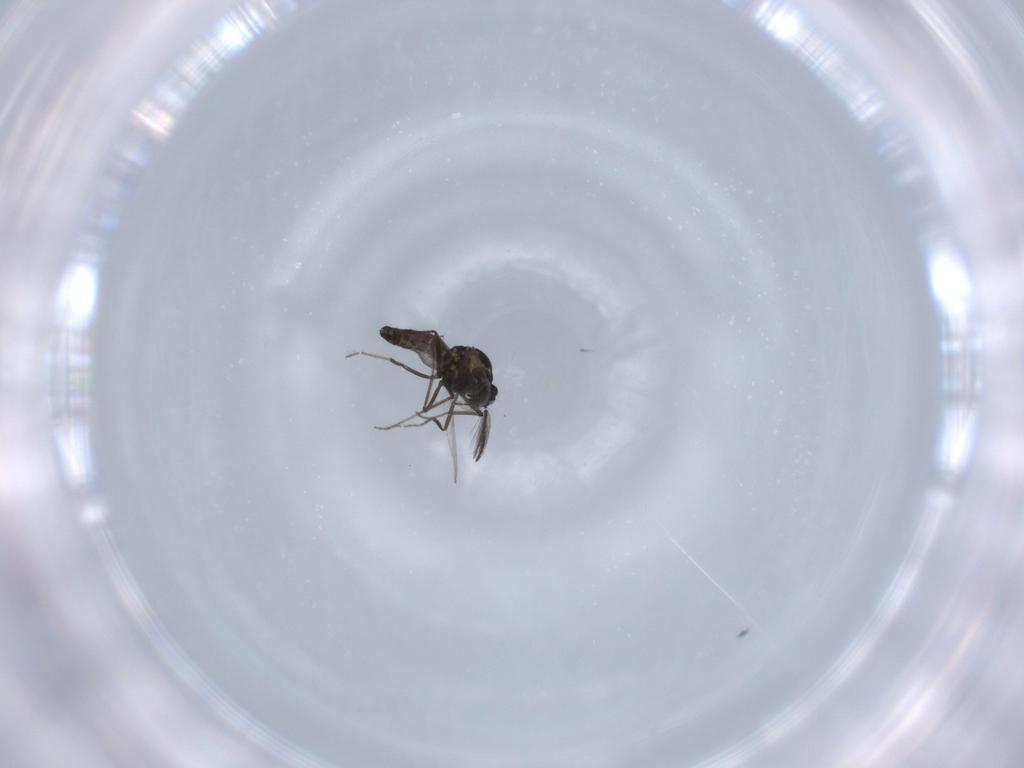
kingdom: Animalia
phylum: Arthropoda
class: Insecta
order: Diptera
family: Ceratopogonidae
